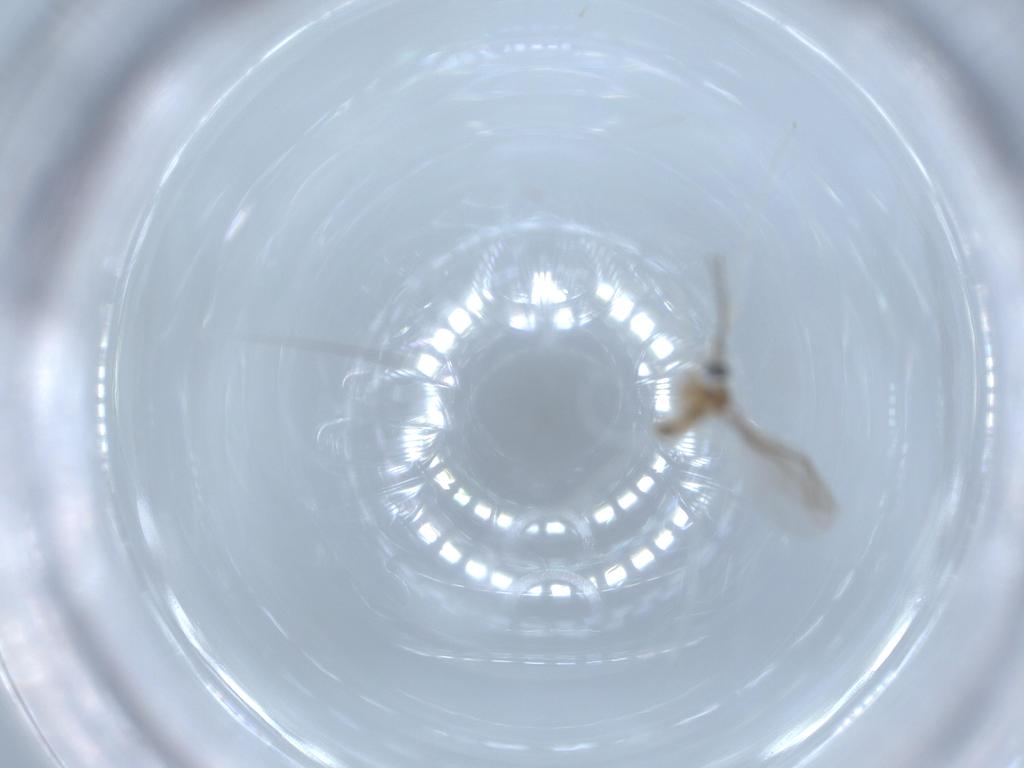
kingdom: Animalia
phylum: Arthropoda
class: Insecta
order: Diptera
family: Cecidomyiidae
